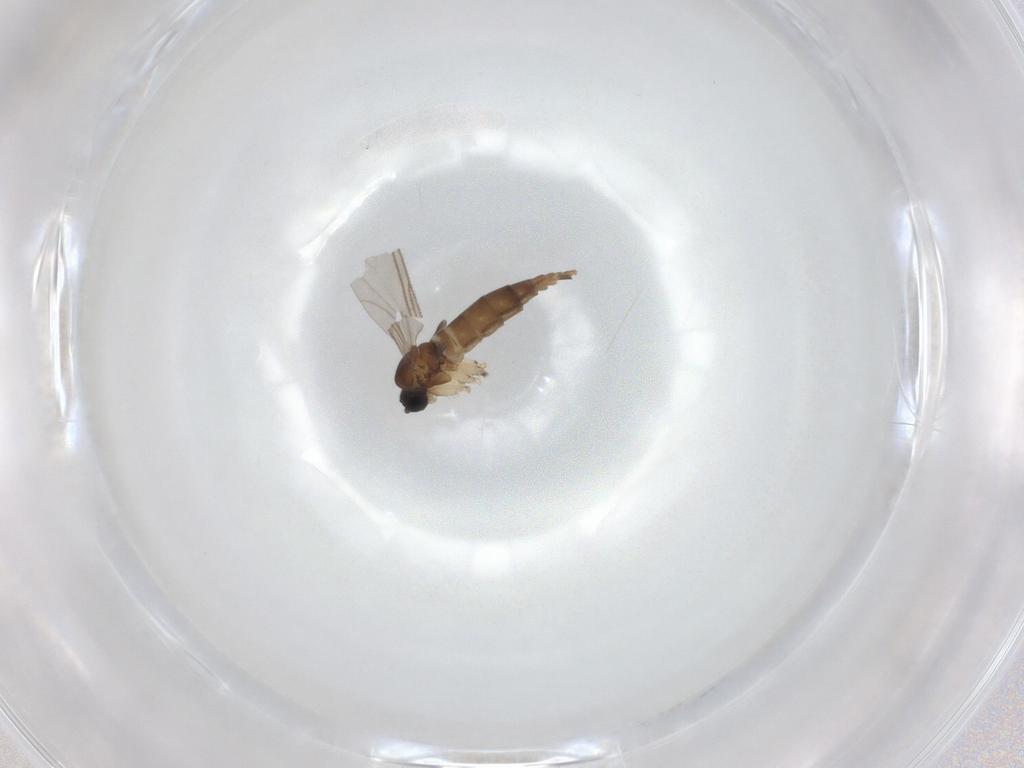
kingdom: Animalia
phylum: Arthropoda
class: Insecta
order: Diptera
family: Sciaridae
